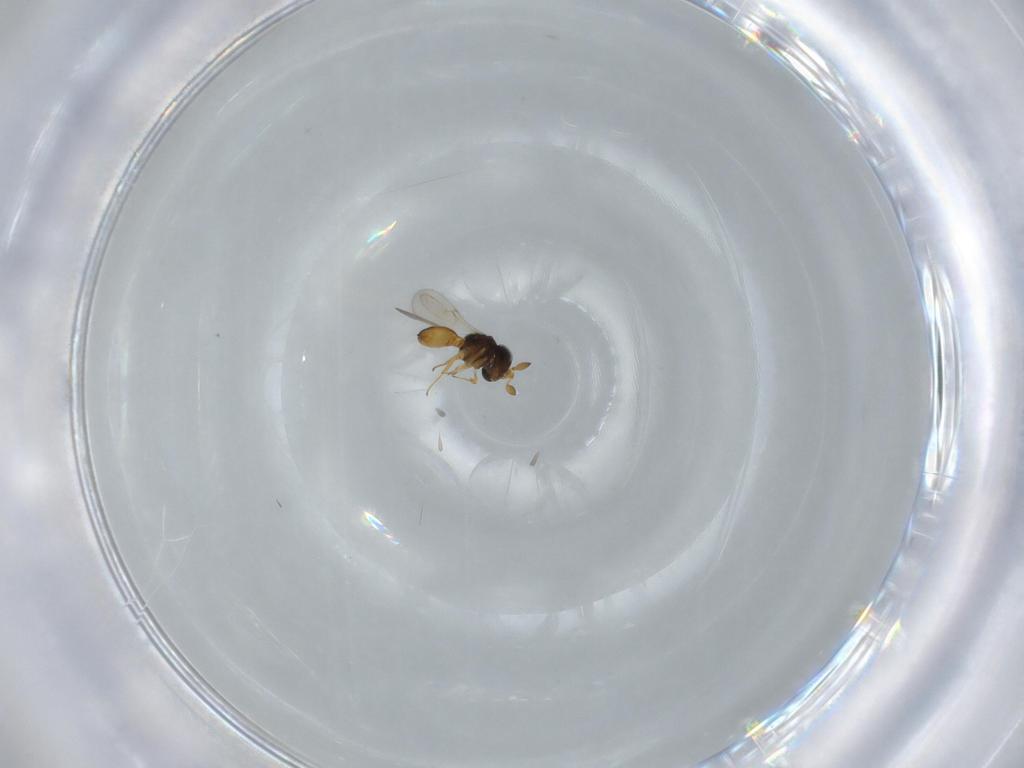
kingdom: Animalia
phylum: Arthropoda
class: Insecta
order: Hymenoptera
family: Scelionidae
